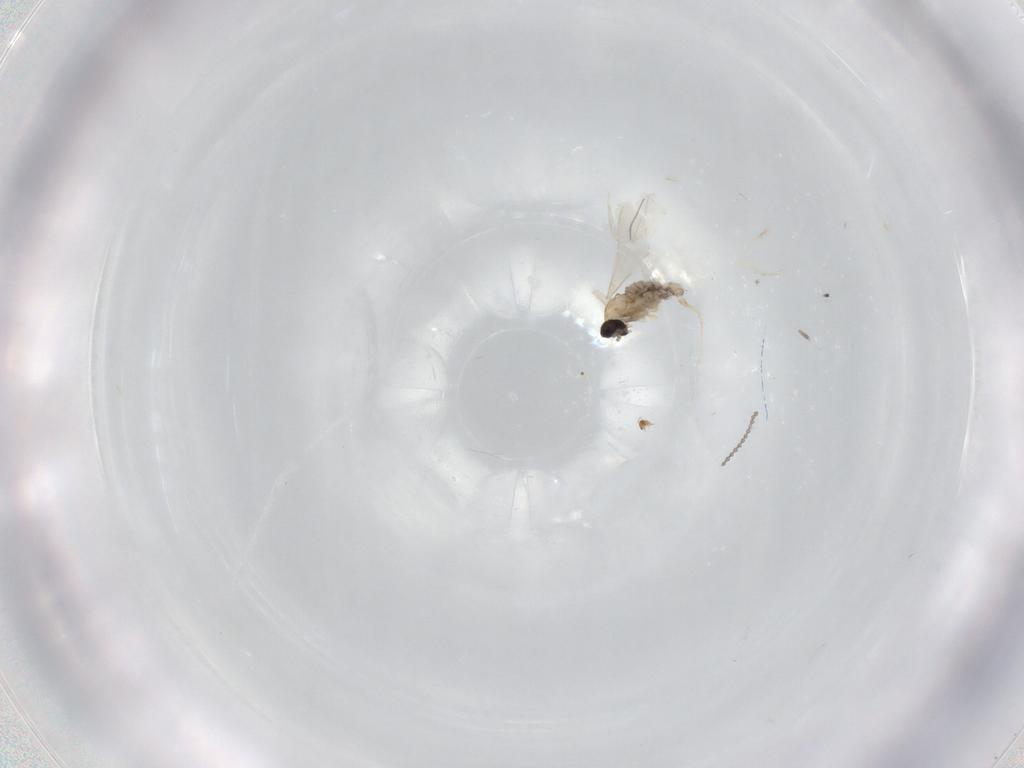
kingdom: Animalia
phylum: Arthropoda
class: Insecta
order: Diptera
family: Cecidomyiidae
